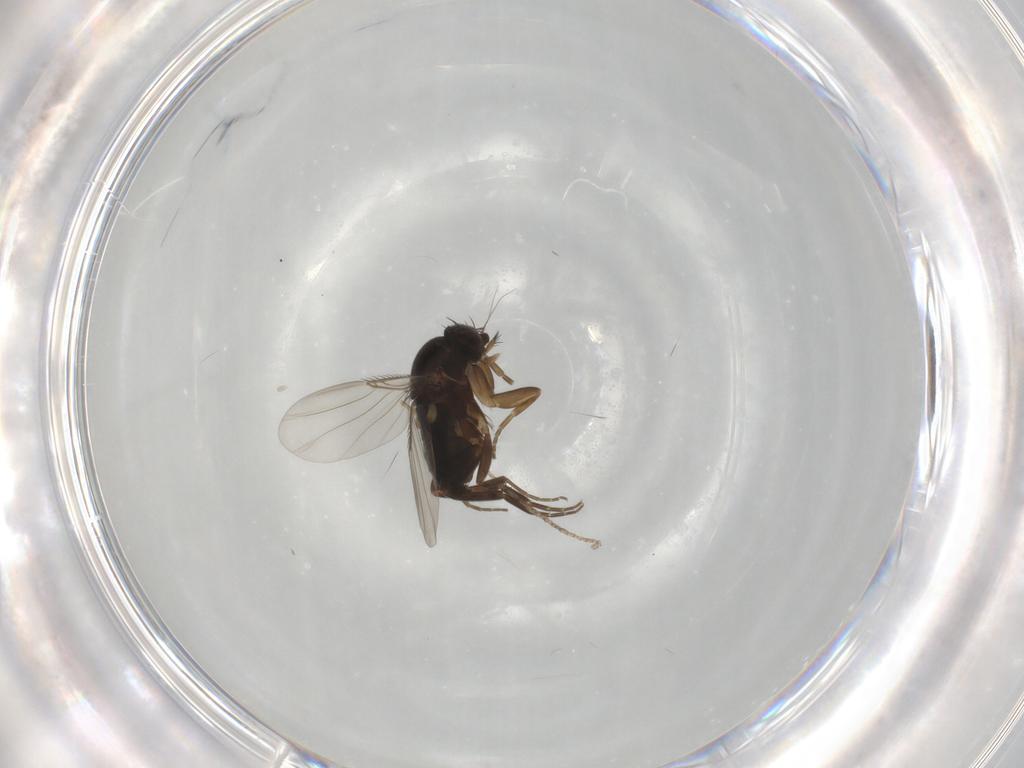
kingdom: Animalia
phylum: Arthropoda
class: Insecta
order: Diptera
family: Phoridae
